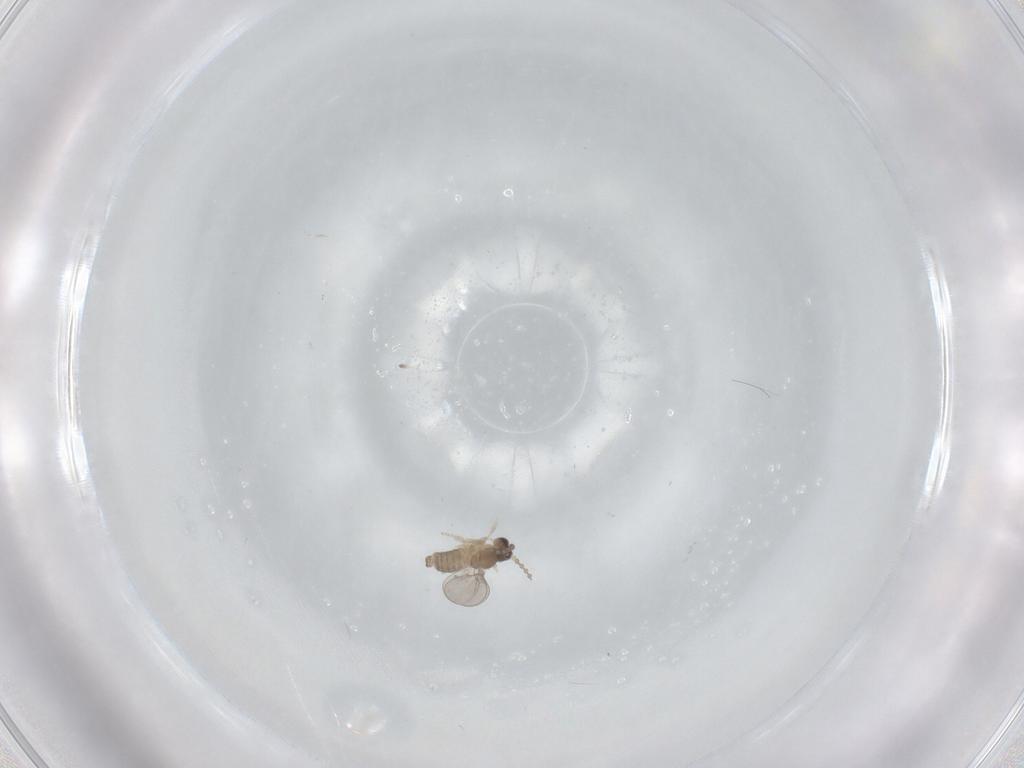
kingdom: Animalia
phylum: Arthropoda
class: Insecta
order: Diptera
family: Cecidomyiidae
